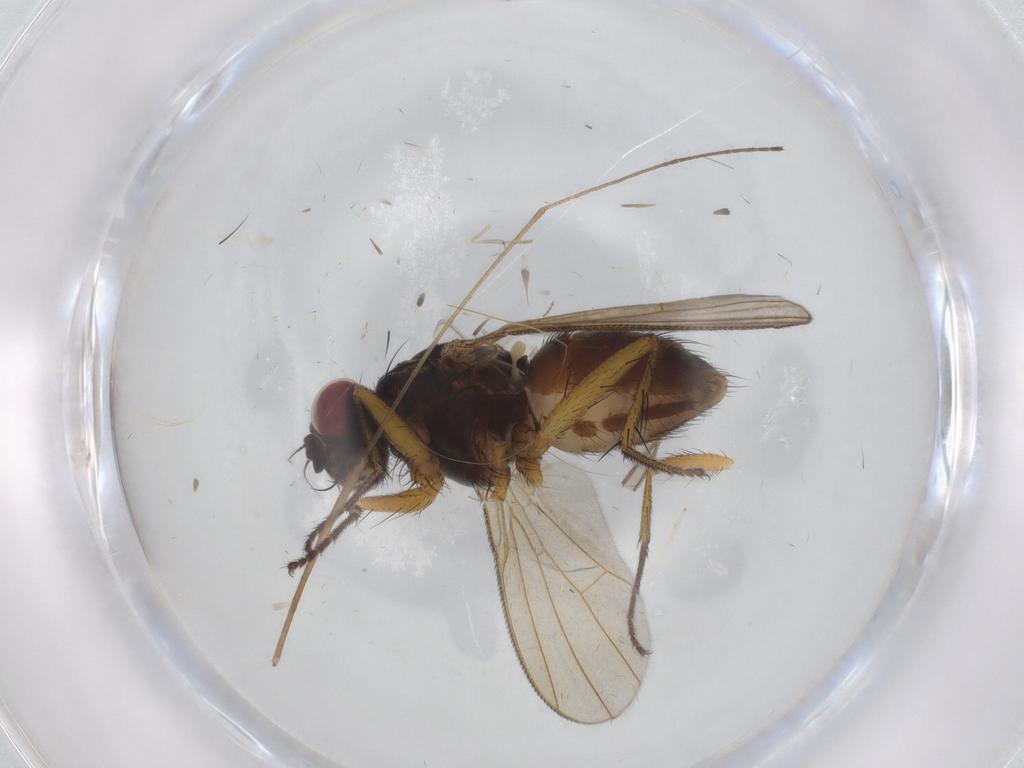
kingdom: Animalia
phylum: Arthropoda
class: Insecta
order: Diptera
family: Sciaridae
